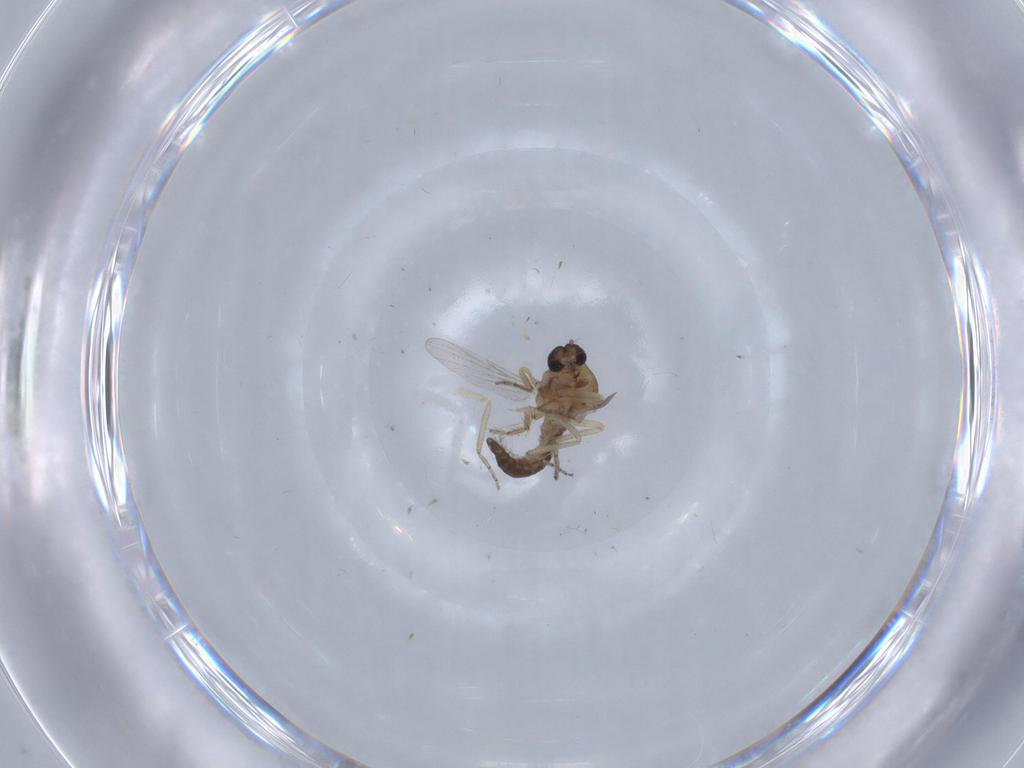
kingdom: Animalia
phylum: Arthropoda
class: Insecta
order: Diptera
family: Ceratopogonidae
